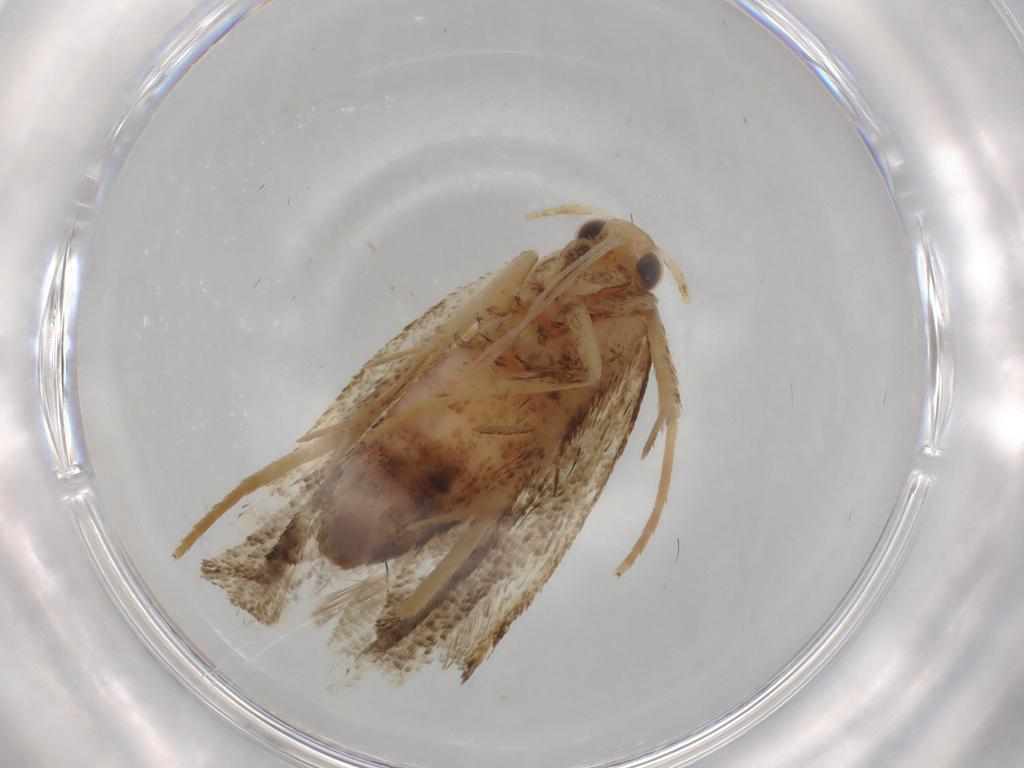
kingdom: Animalia
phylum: Arthropoda
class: Insecta
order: Lepidoptera
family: Gelechiidae
